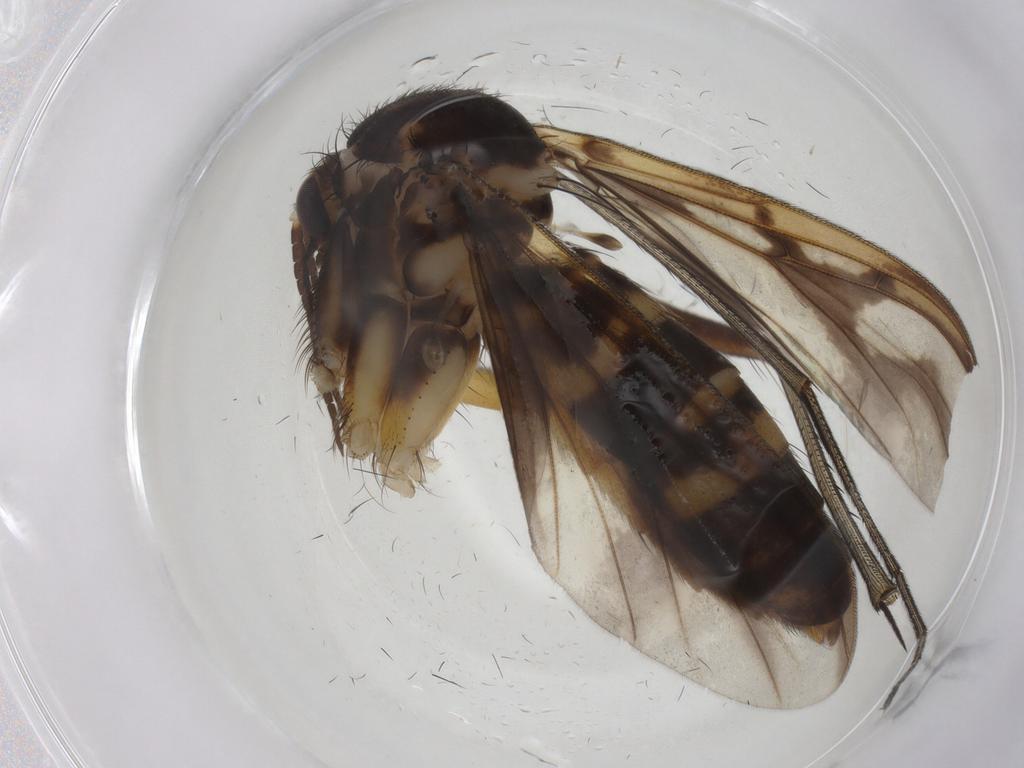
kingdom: Animalia
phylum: Arthropoda
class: Insecta
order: Diptera
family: Mycetophilidae
